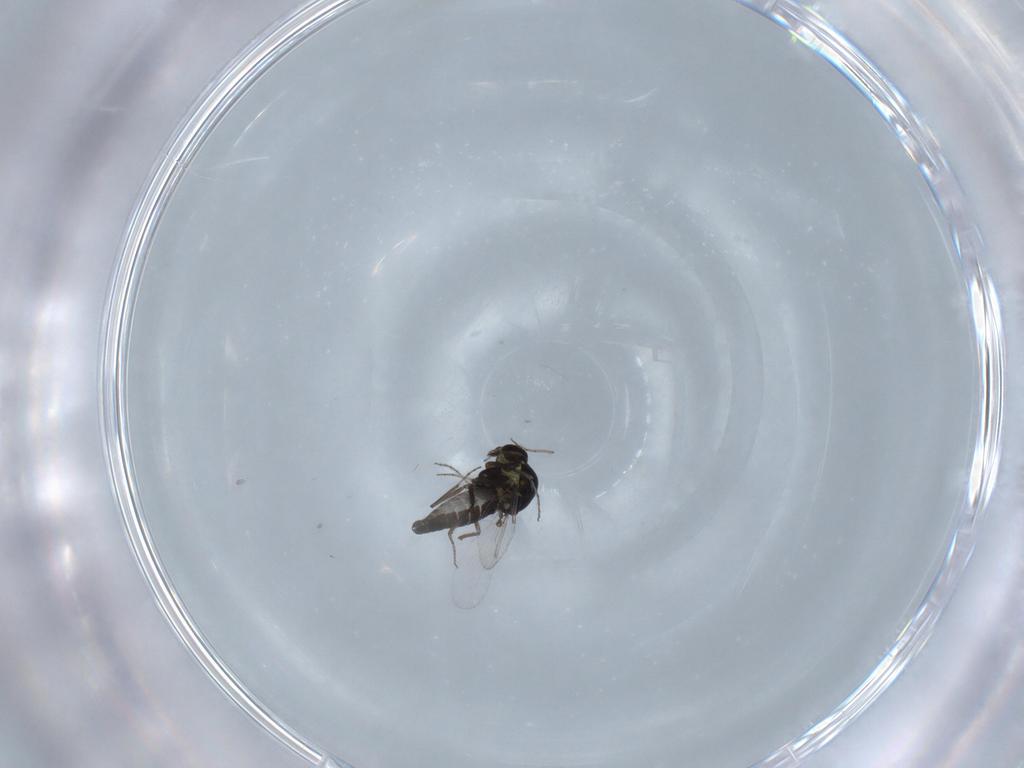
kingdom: Animalia
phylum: Arthropoda
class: Insecta
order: Diptera
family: Ceratopogonidae
